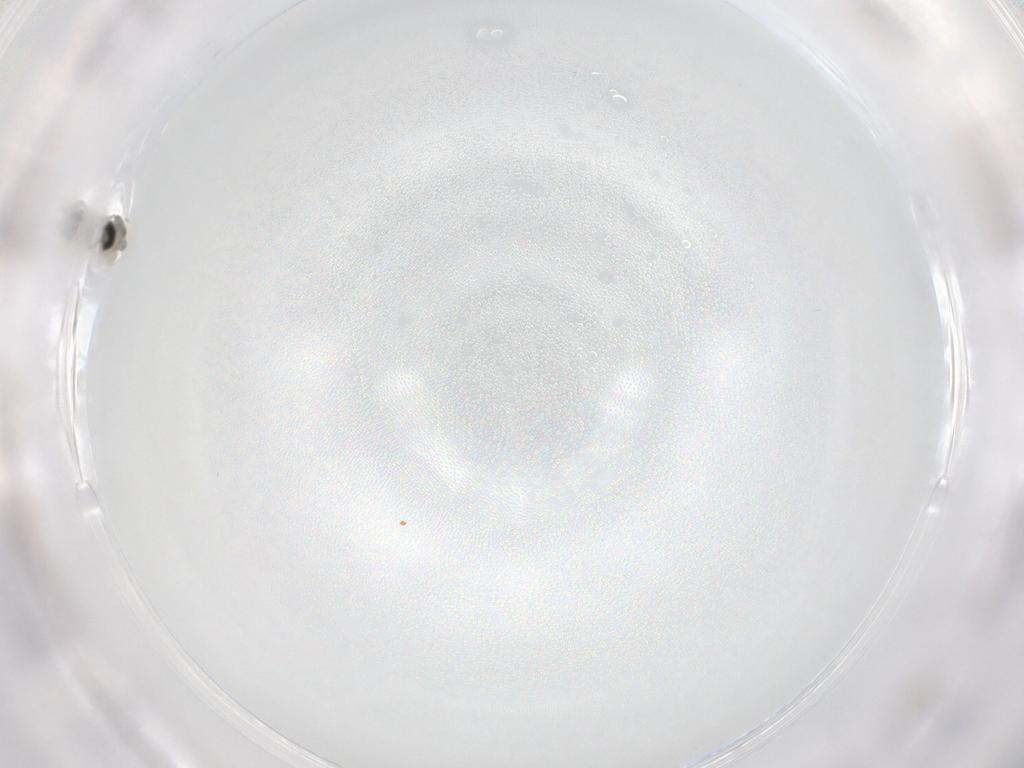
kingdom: Animalia
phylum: Arthropoda
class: Insecta
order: Diptera
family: Cecidomyiidae
